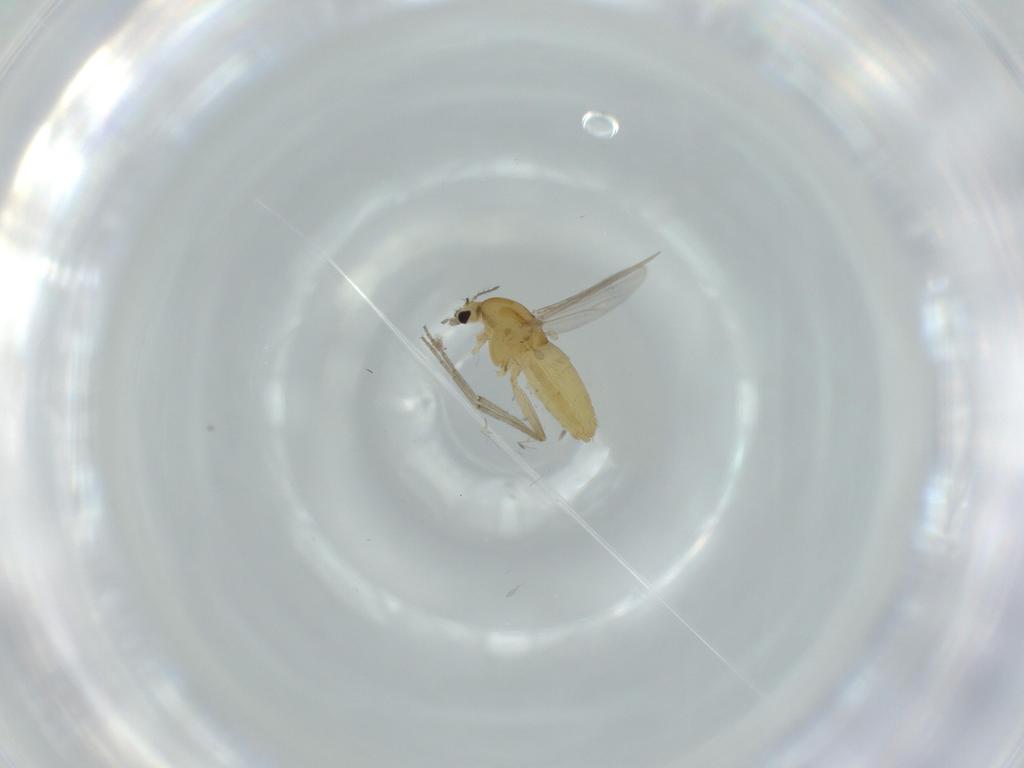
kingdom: Animalia
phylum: Arthropoda
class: Insecta
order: Diptera
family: Chironomidae
